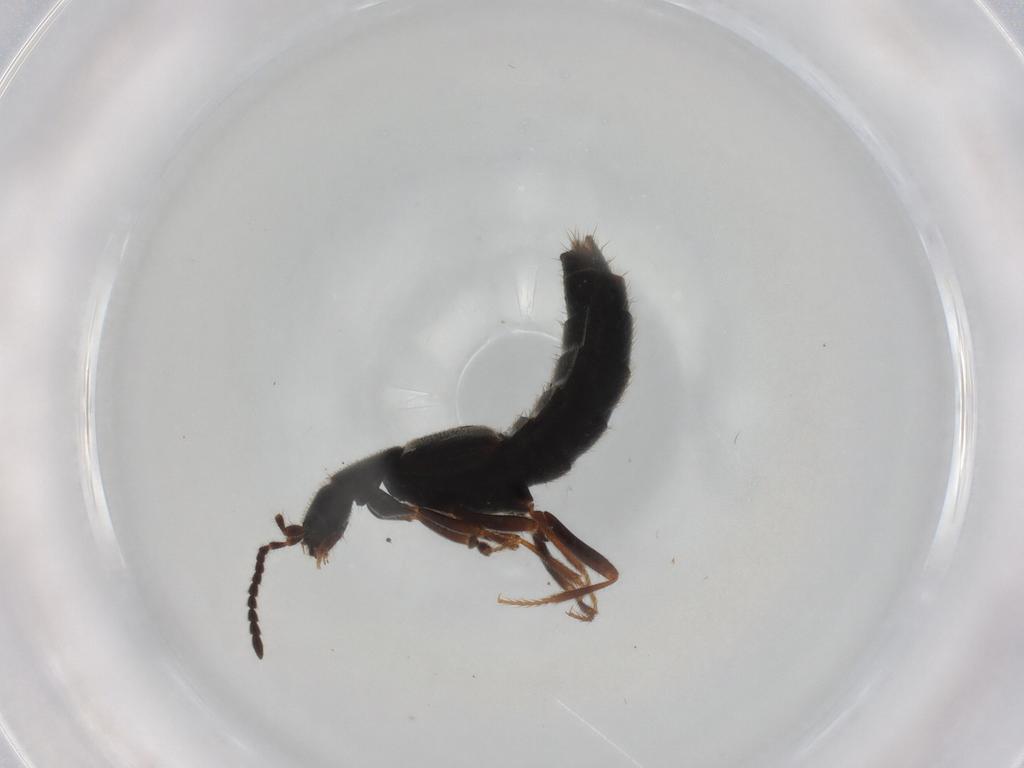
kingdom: Animalia
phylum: Arthropoda
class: Insecta
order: Coleoptera
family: Staphylinidae
